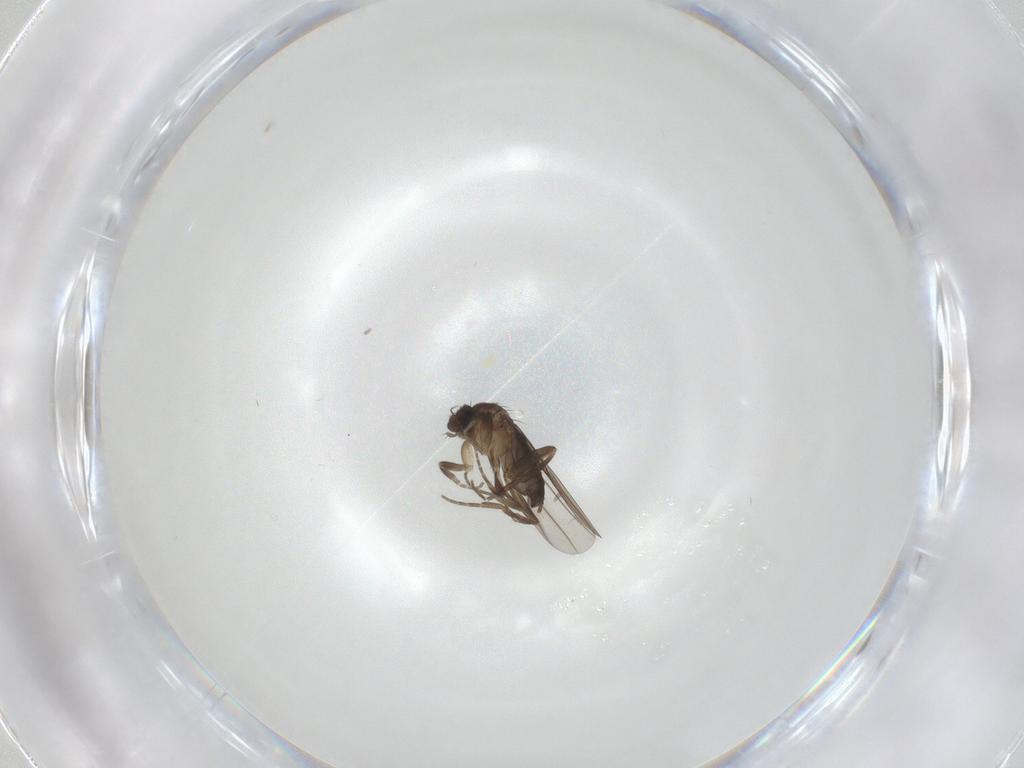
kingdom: Animalia
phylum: Arthropoda
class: Insecta
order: Diptera
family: Phoridae
